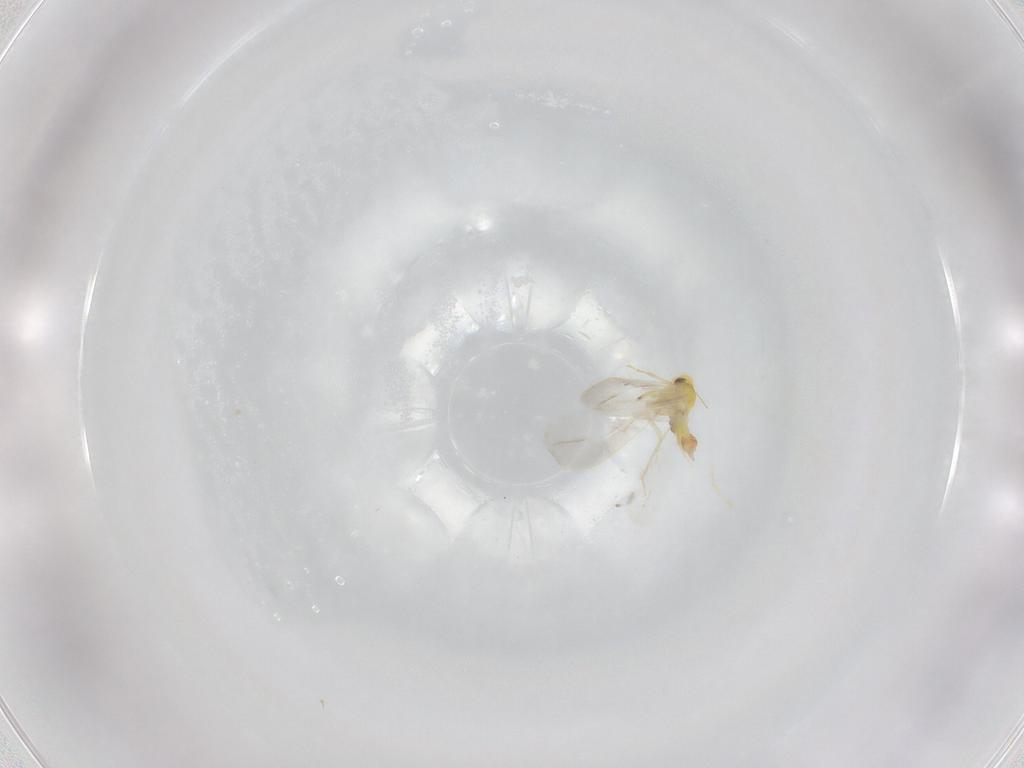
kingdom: Animalia
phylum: Arthropoda
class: Insecta
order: Hemiptera
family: Aleyrodidae
